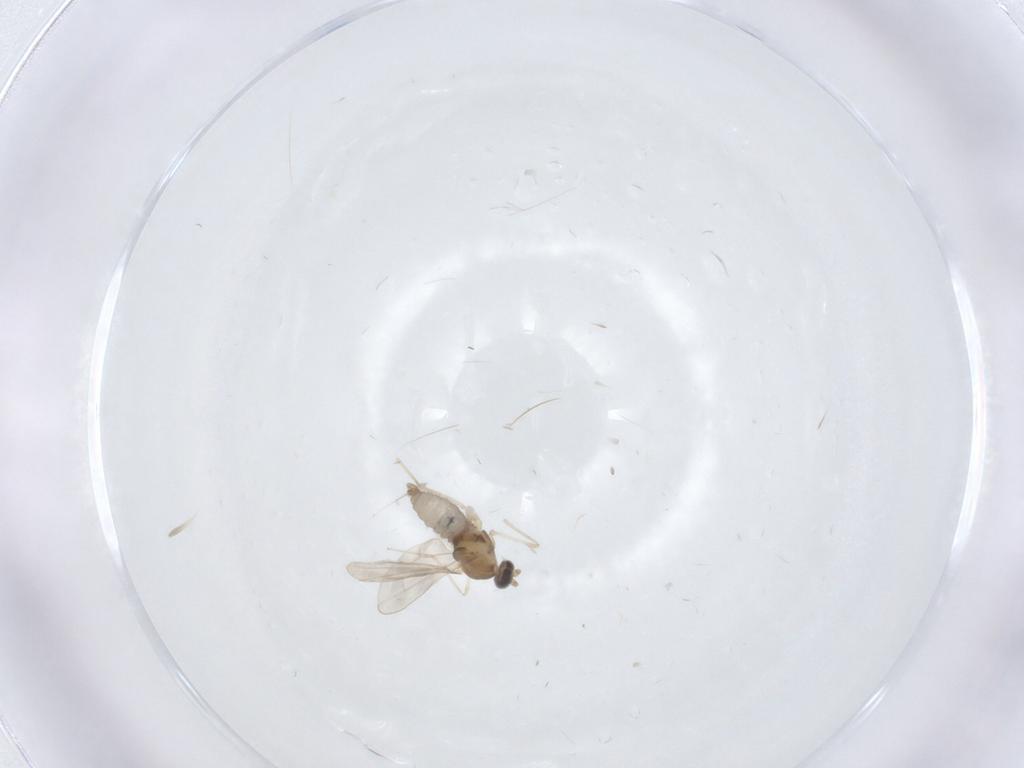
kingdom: Animalia
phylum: Arthropoda
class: Insecta
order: Diptera
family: Cecidomyiidae
